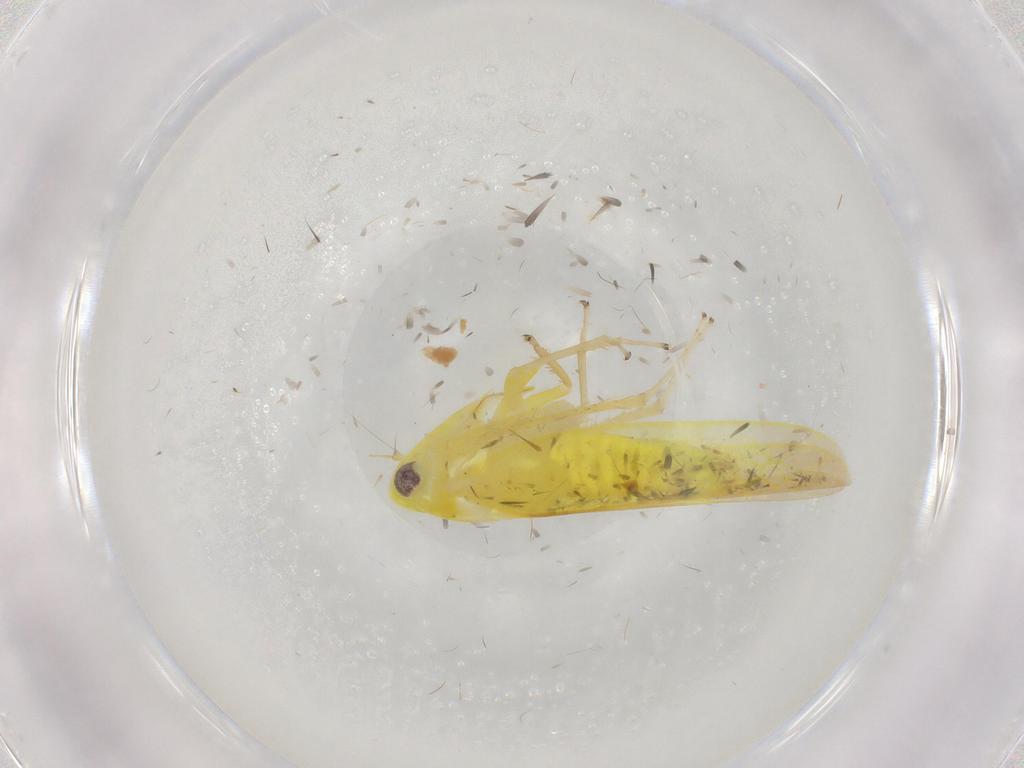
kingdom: Animalia
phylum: Arthropoda
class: Insecta
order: Hemiptera
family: Cicadellidae
